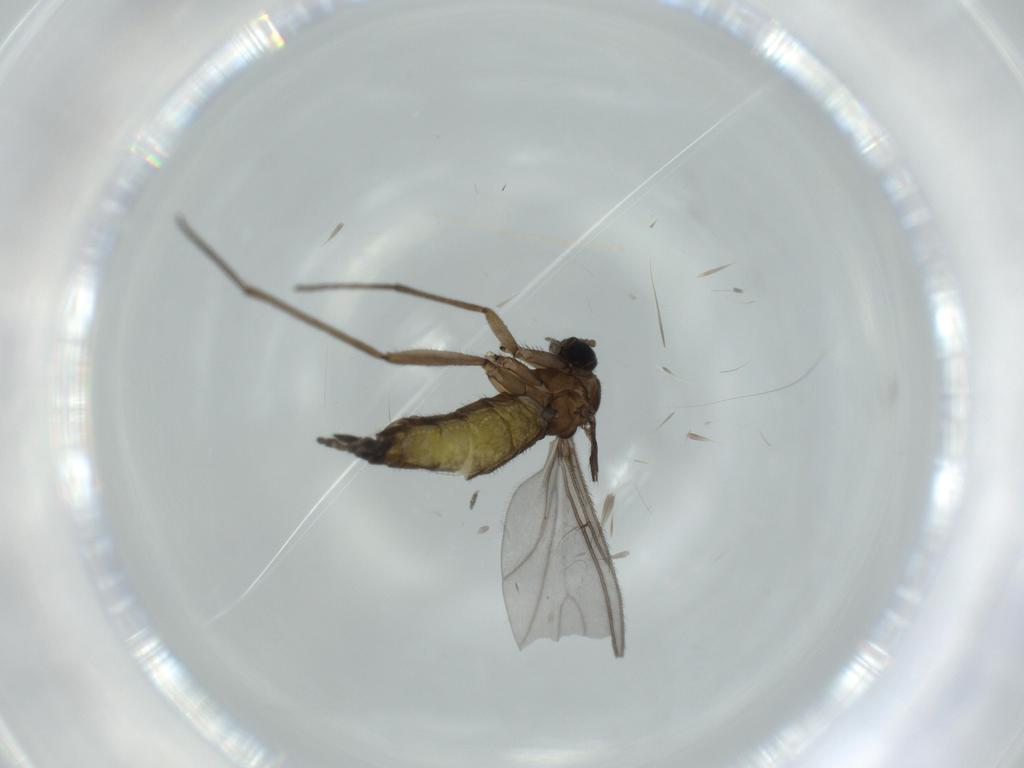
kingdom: Animalia
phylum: Arthropoda
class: Insecta
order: Diptera
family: Sciaridae
